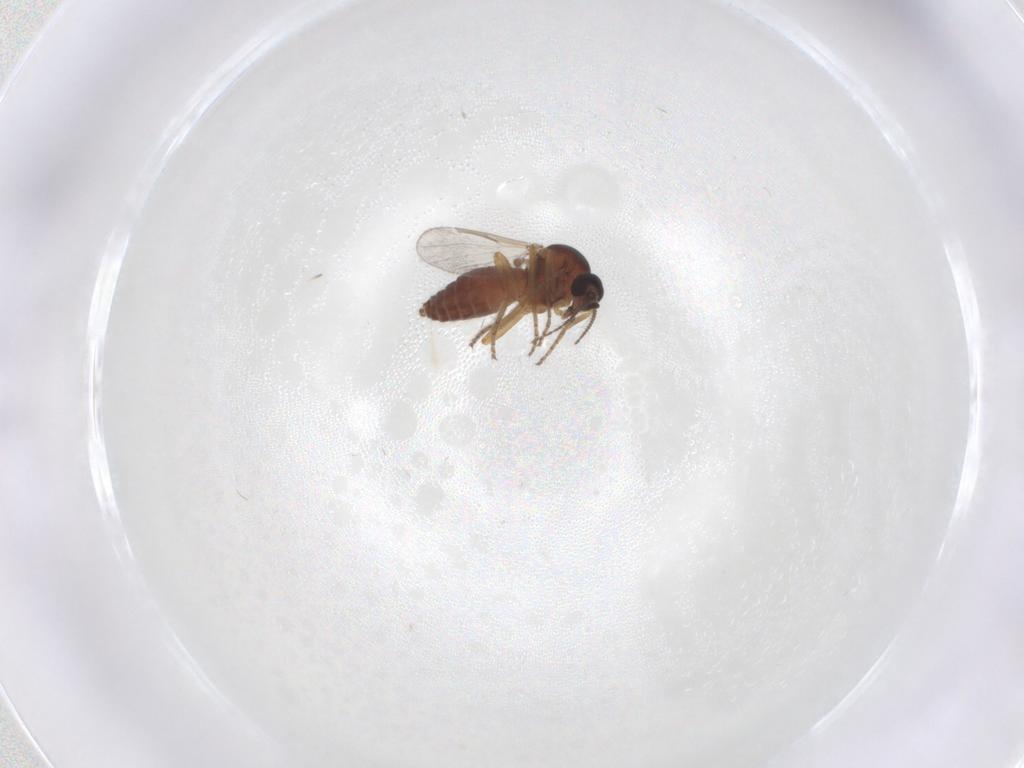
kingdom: Animalia
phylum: Arthropoda
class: Insecta
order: Diptera
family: Ceratopogonidae
